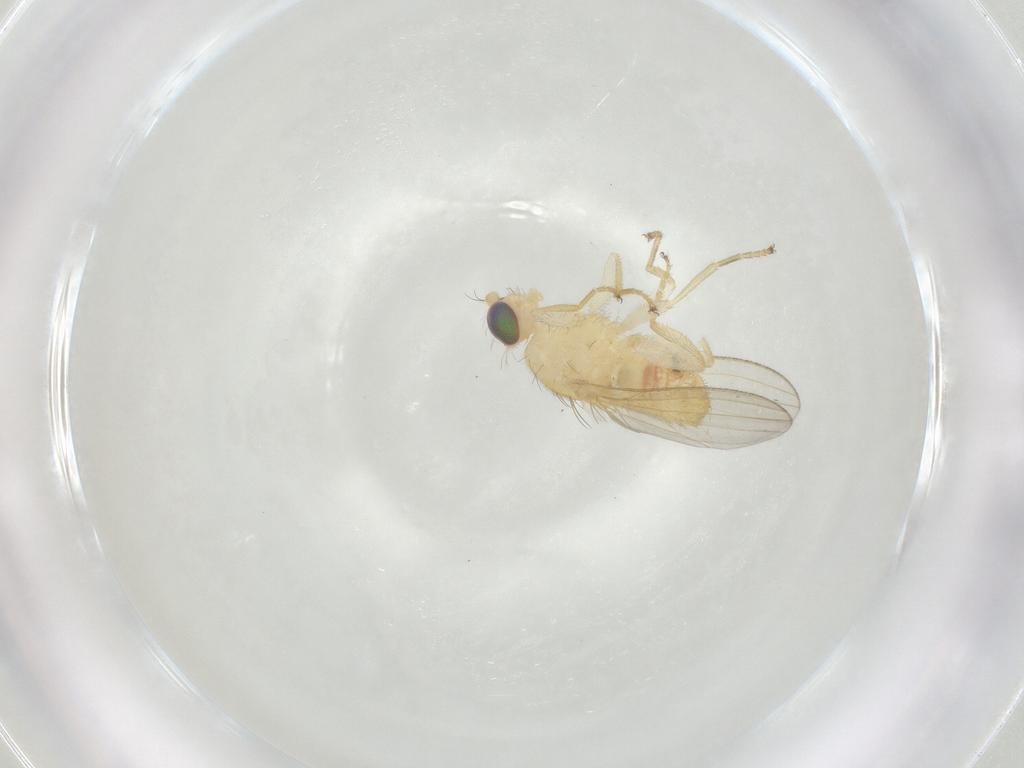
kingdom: Animalia
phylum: Arthropoda
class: Insecta
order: Diptera
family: Chyromyidae
